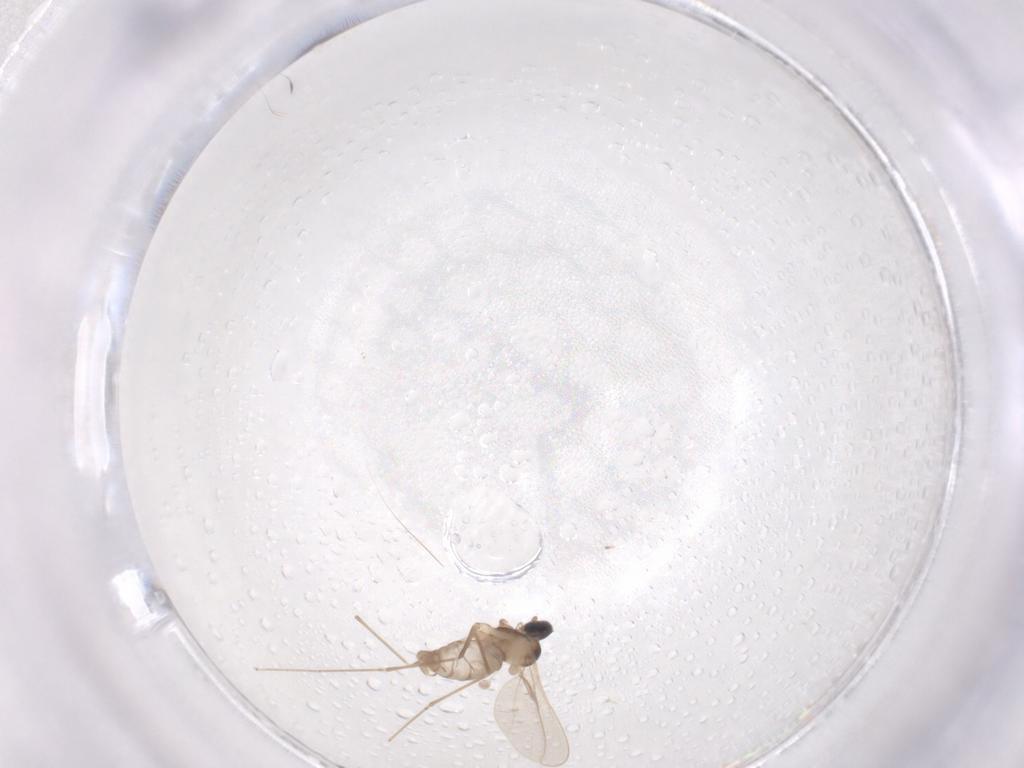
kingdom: Animalia
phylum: Arthropoda
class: Insecta
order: Diptera
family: Cecidomyiidae
